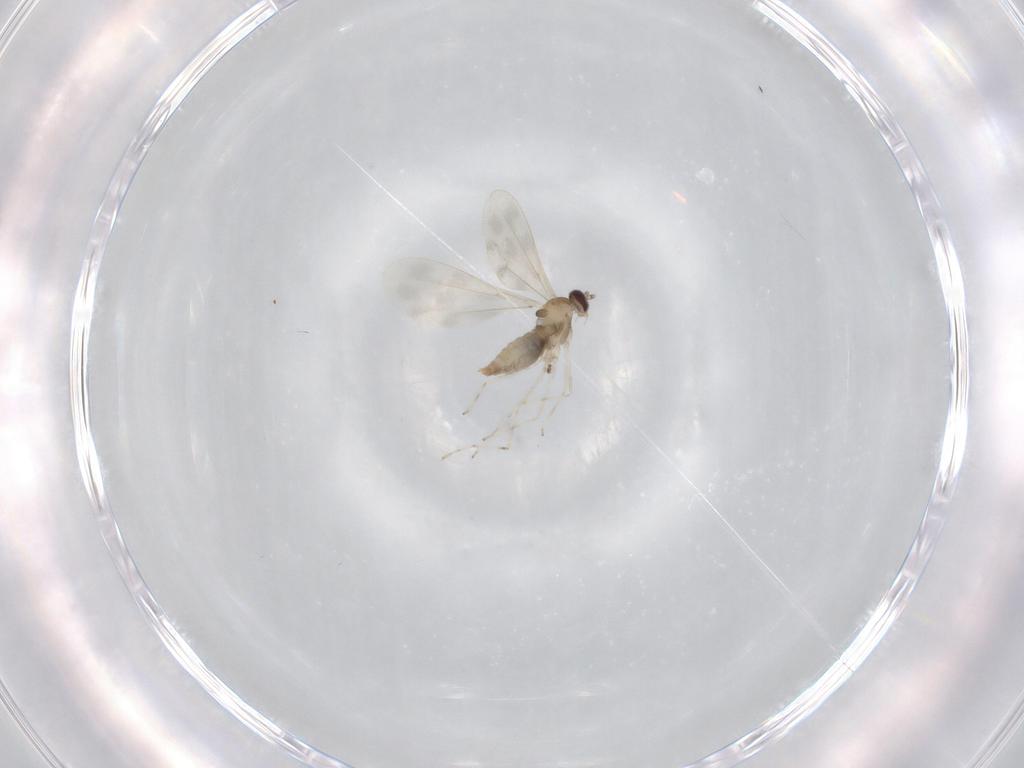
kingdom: Animalia
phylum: Arthropoda
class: Insecta
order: Diptera
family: Cecidomyiidae
